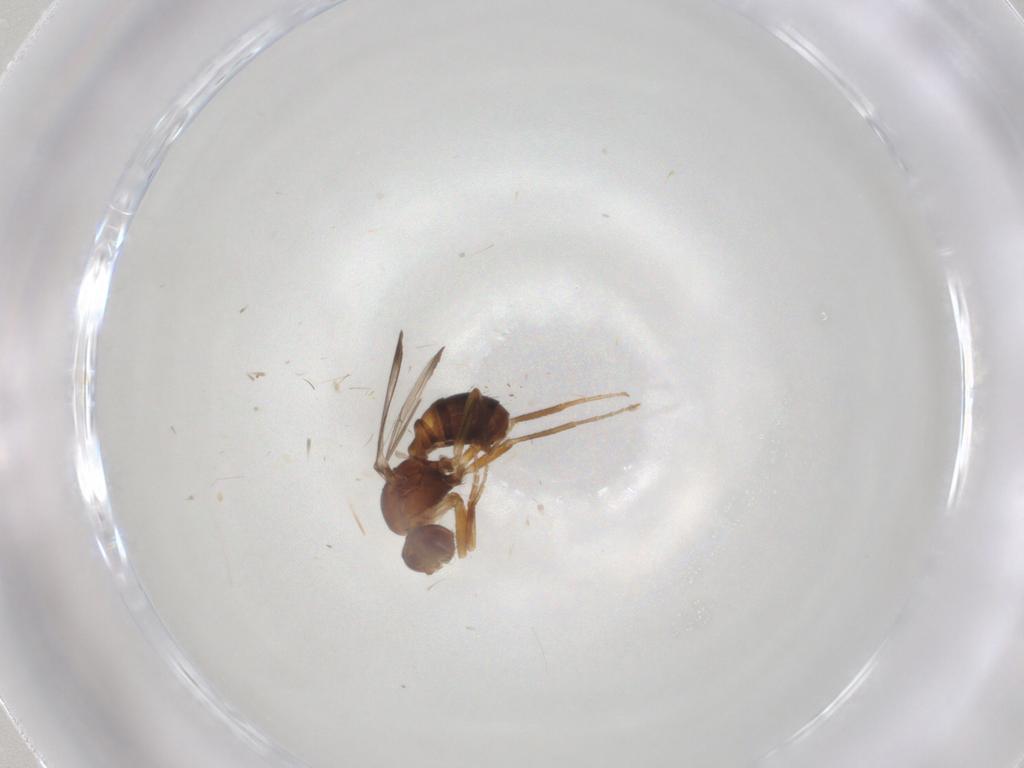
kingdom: Animalia
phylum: Arthropoda
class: Insecta
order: Diptera
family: Drosophilidae
